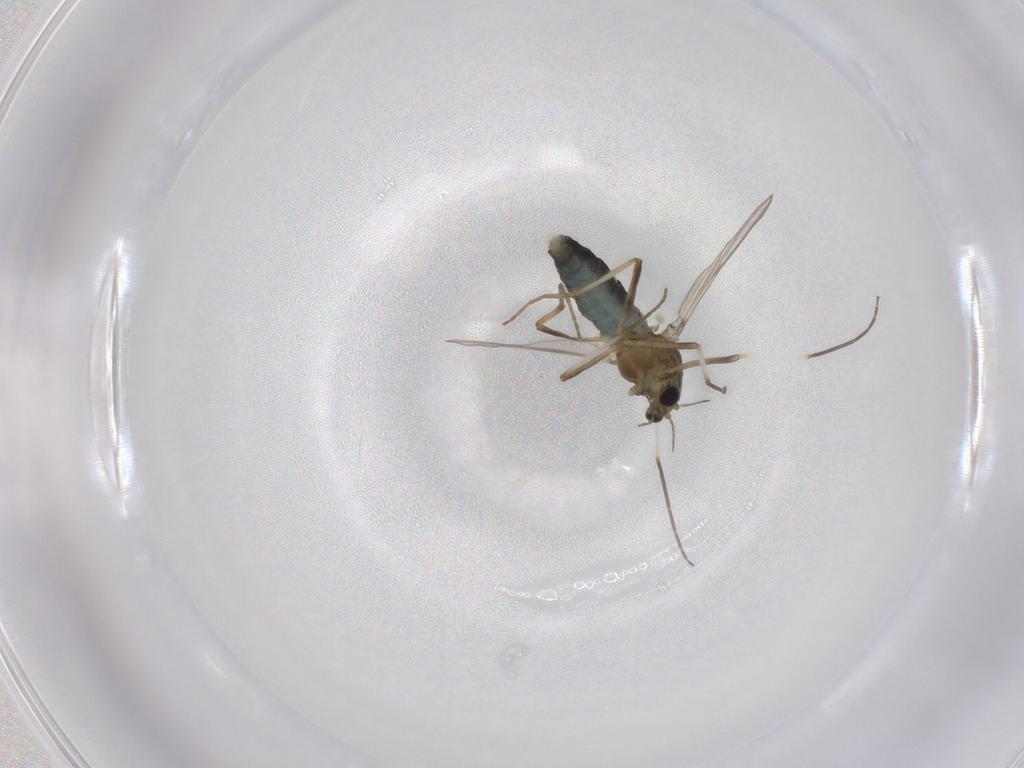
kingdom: Animalia
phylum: Arthropoda
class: Insecta
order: Diptera
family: Chironomidae
